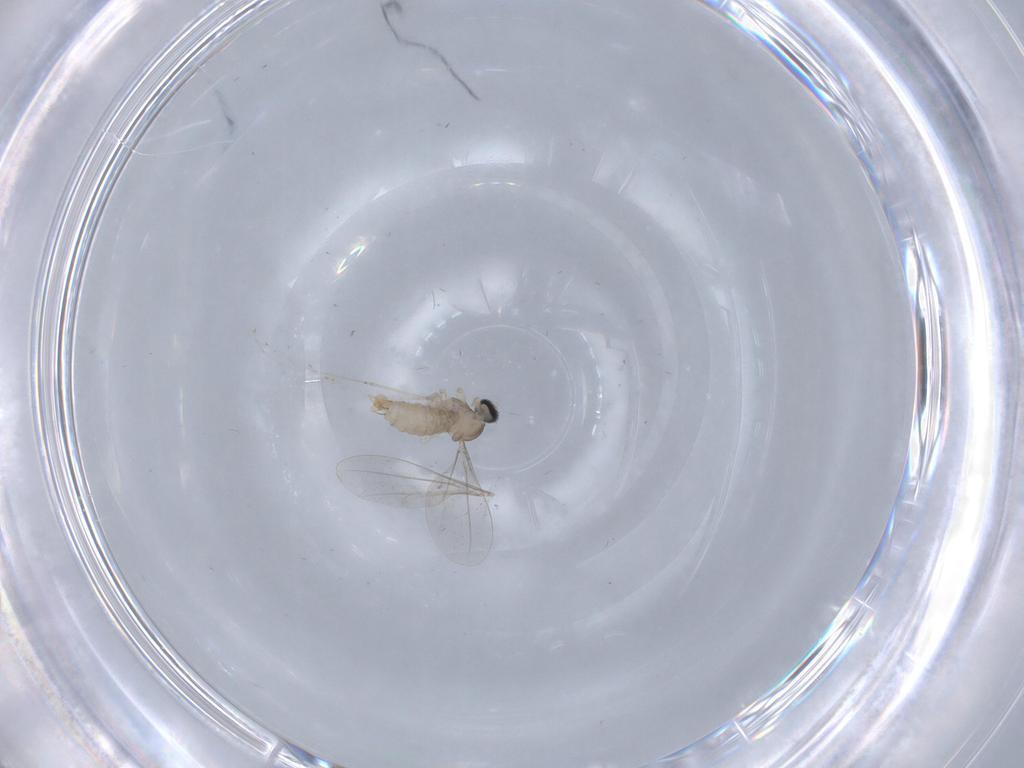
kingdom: Animalia
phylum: Arthropoda
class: Insecta
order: Diptera
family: Cecidomyiidae
